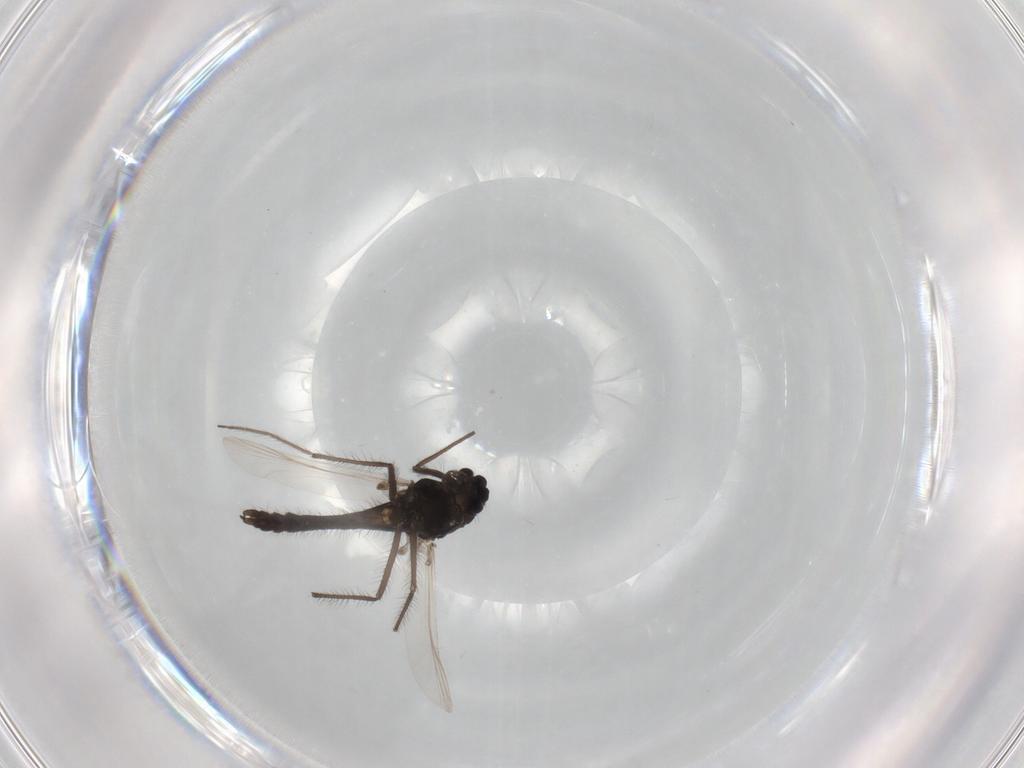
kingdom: Animalia
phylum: Arthropoda
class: Insecta
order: Diptera
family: Chironomidae
